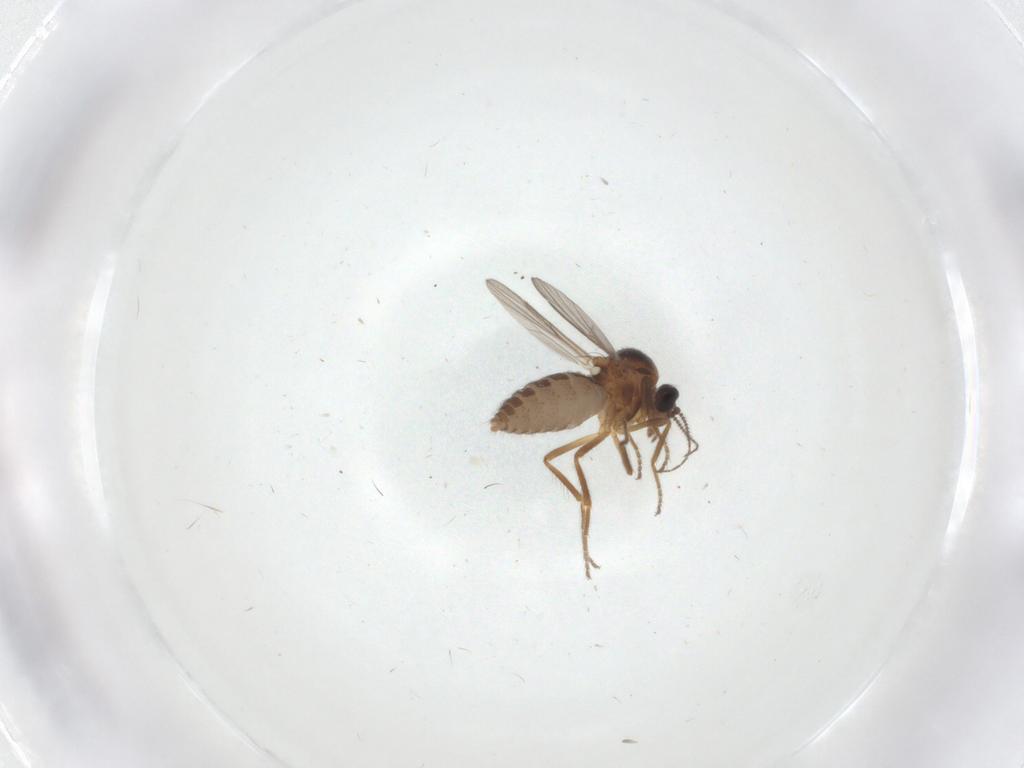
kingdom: Animalia
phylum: Arthropoda
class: Insecta
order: Diptera
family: Ceratopogonidae
